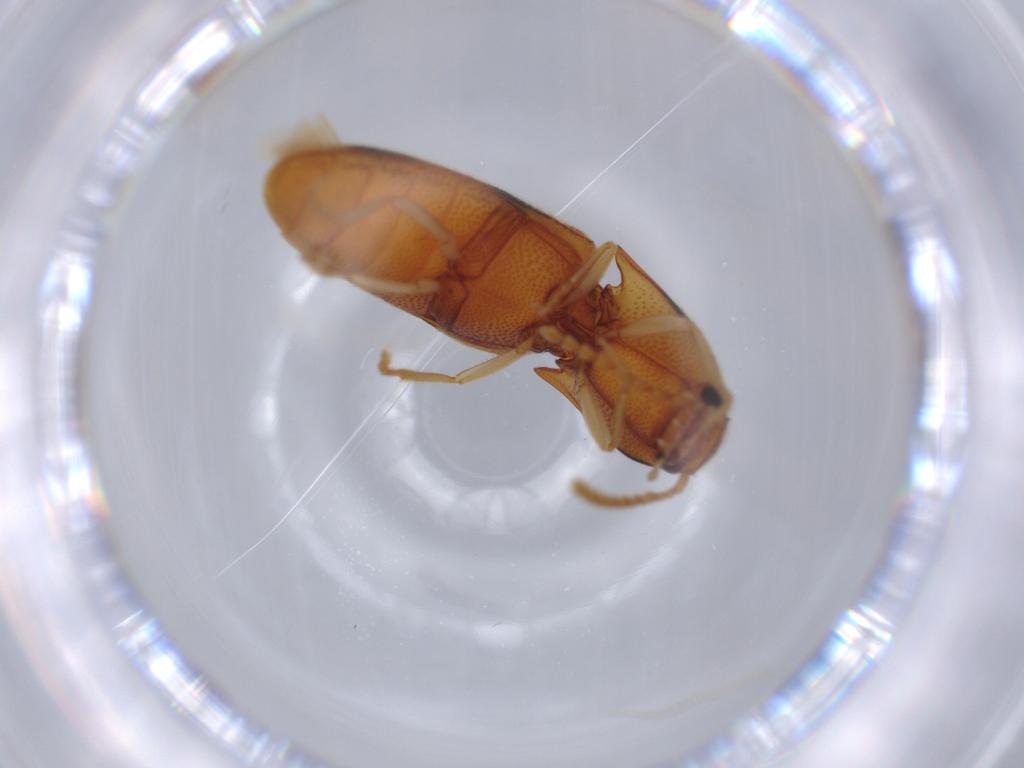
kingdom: Animalia
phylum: Arthropoda
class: Insecta
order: Coleoptera
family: Elateridae
